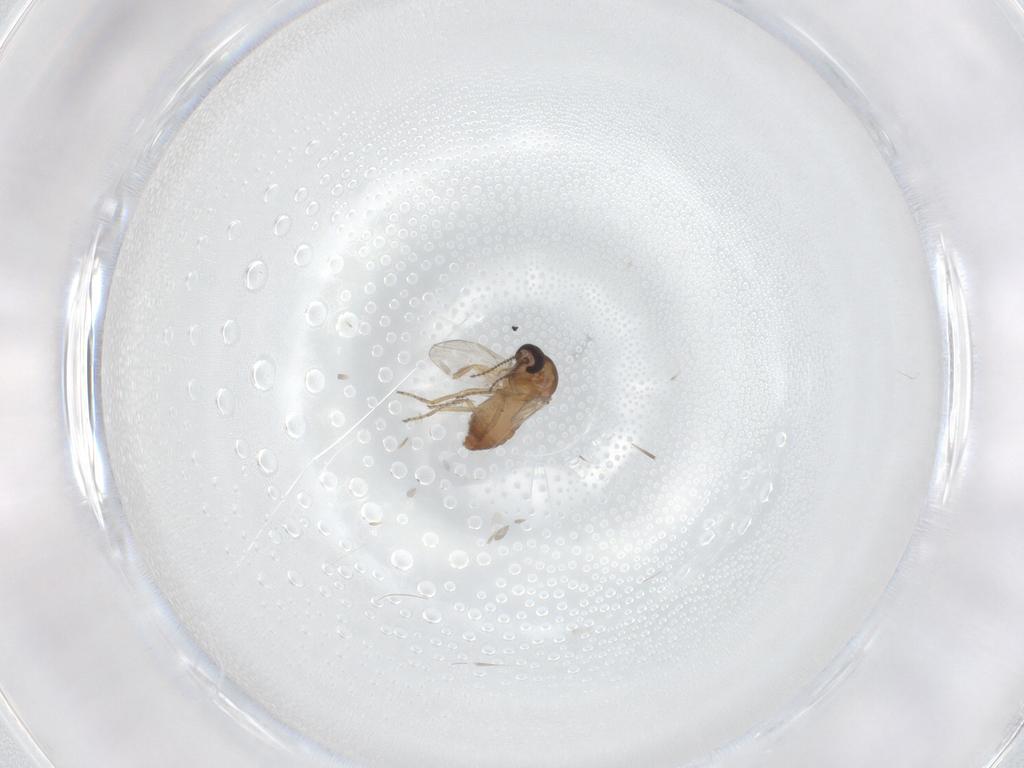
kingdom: Animalia
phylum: Arthropoda
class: Insecta
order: Diptera
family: Ceratopogonidae
